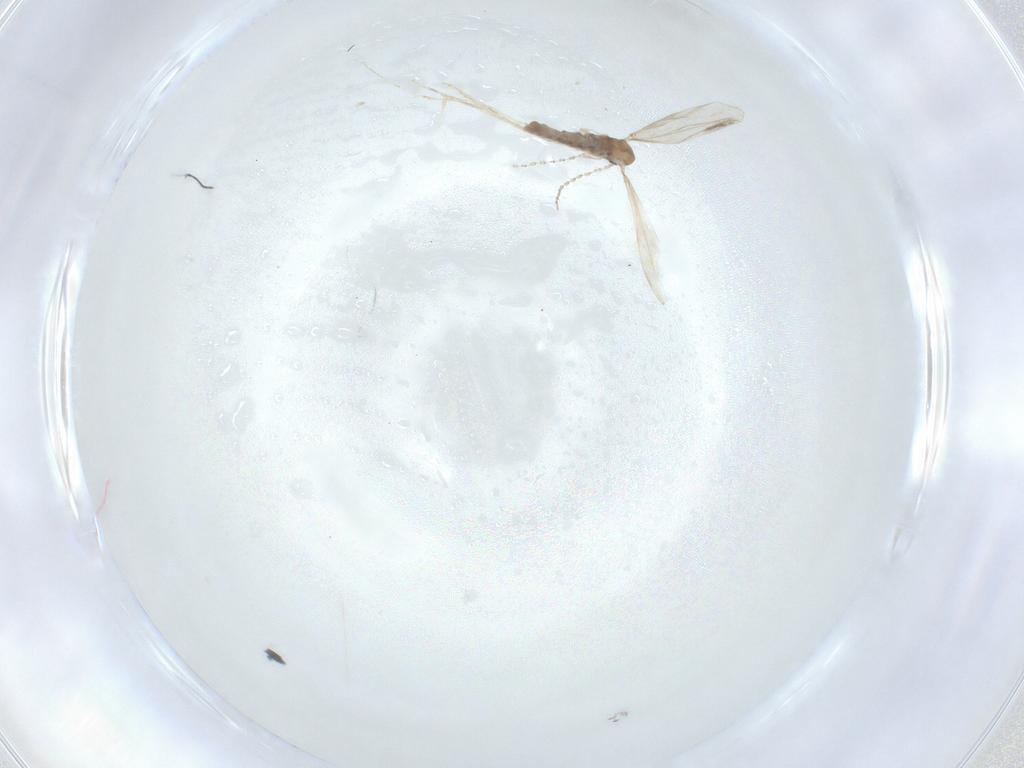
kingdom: Animalia
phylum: Arthropoda
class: Insecta
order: Diptera
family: Cecidomyiidae
